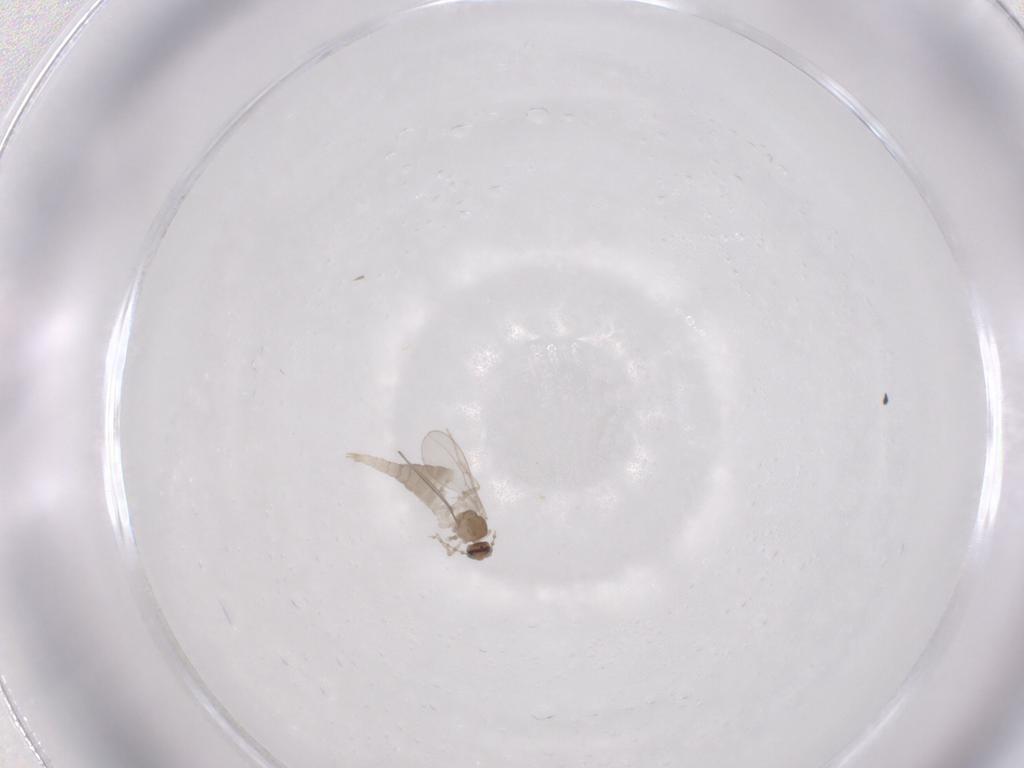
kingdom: Animalia
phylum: Arthropoda
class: Insecta
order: Diptera
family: Cecidomyiidae
